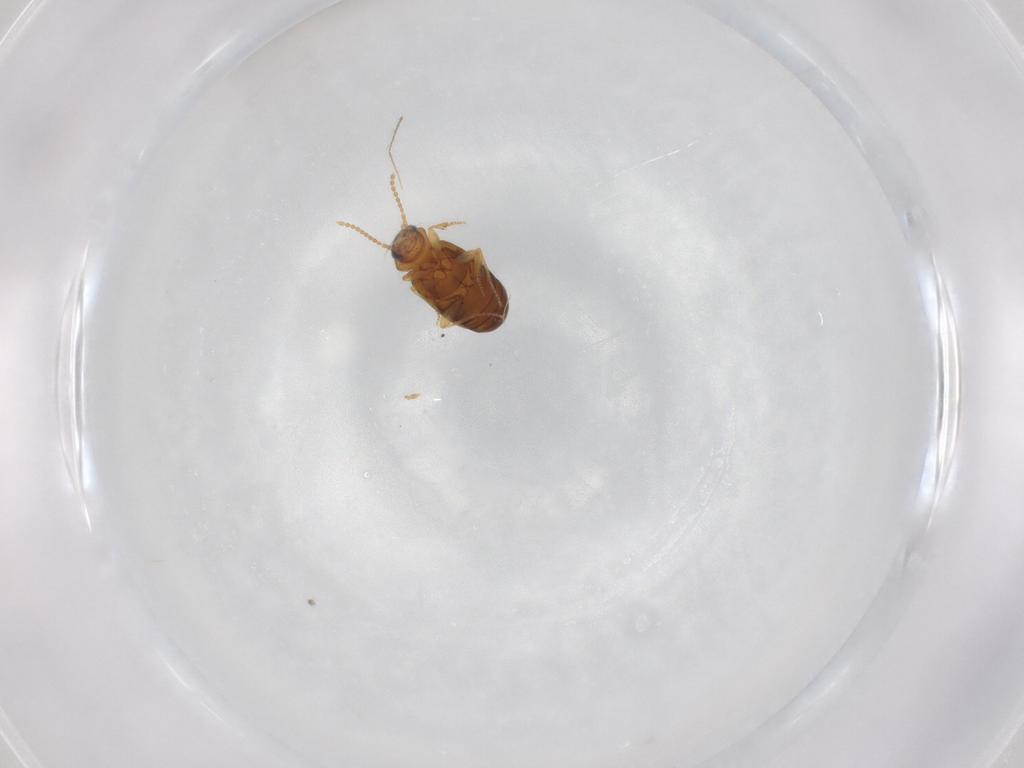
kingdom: Animalia
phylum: Arthropoda
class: Insecta
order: Coleoptera
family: Carabidae
